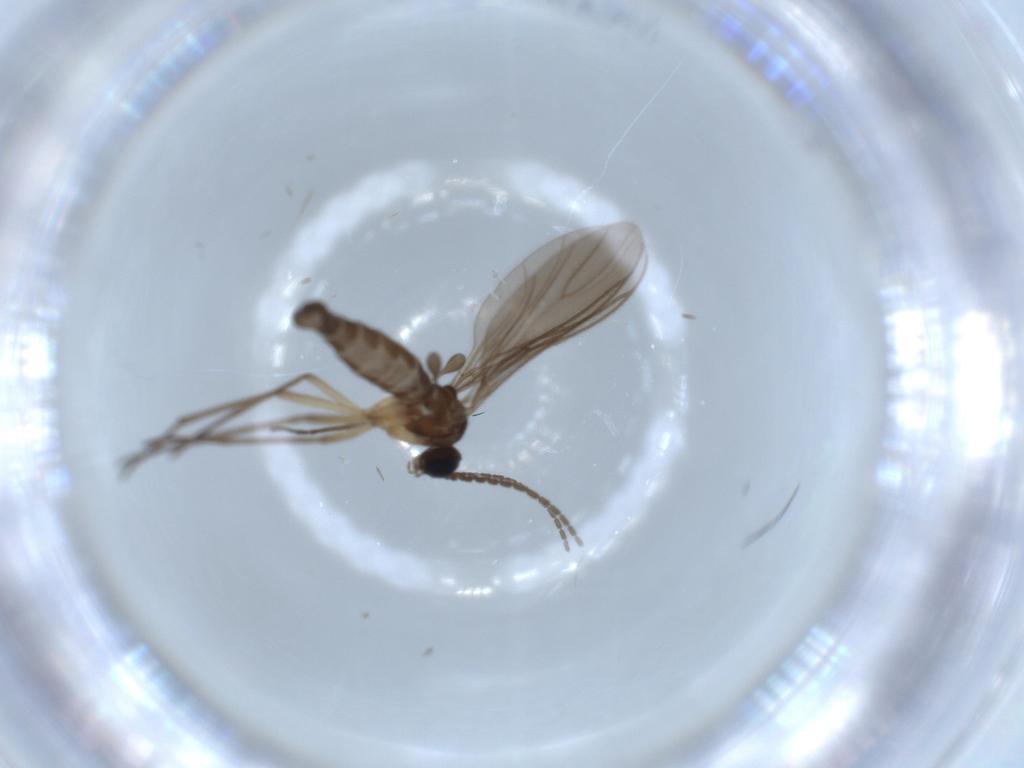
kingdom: Animalia
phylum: Arthropoda
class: Insecta
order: Diptera
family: Sciaridae
